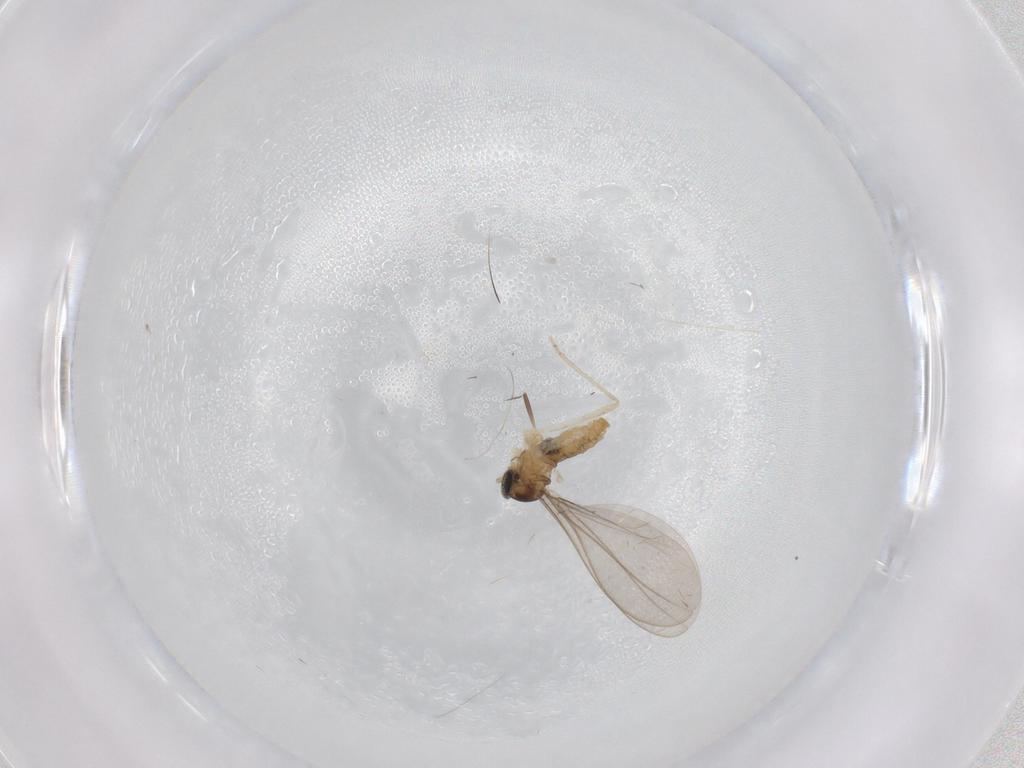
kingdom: Animalia
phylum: Arthropoda
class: Insecta
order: Diptera
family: Cecidomyiidae
